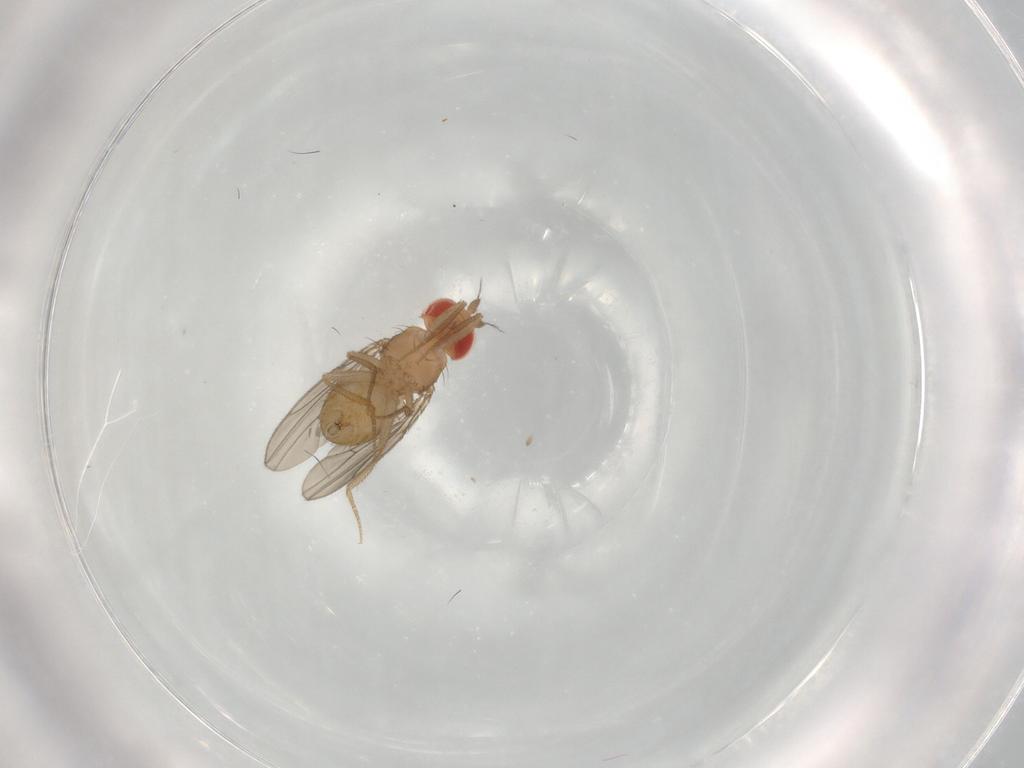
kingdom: Animalia
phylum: Arthropoda
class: Insecta
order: Diptera
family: Drosophilidae
